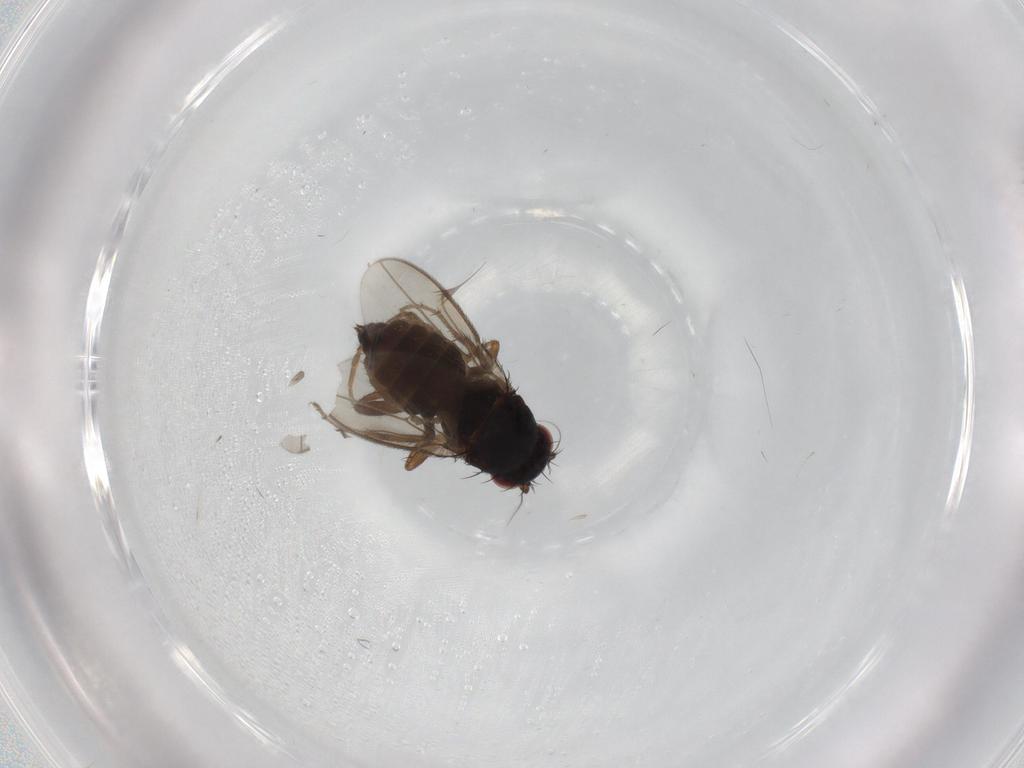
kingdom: Animalia
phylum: Arthropoda
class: Insecta
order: Diptera
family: Sphaeroceridae
